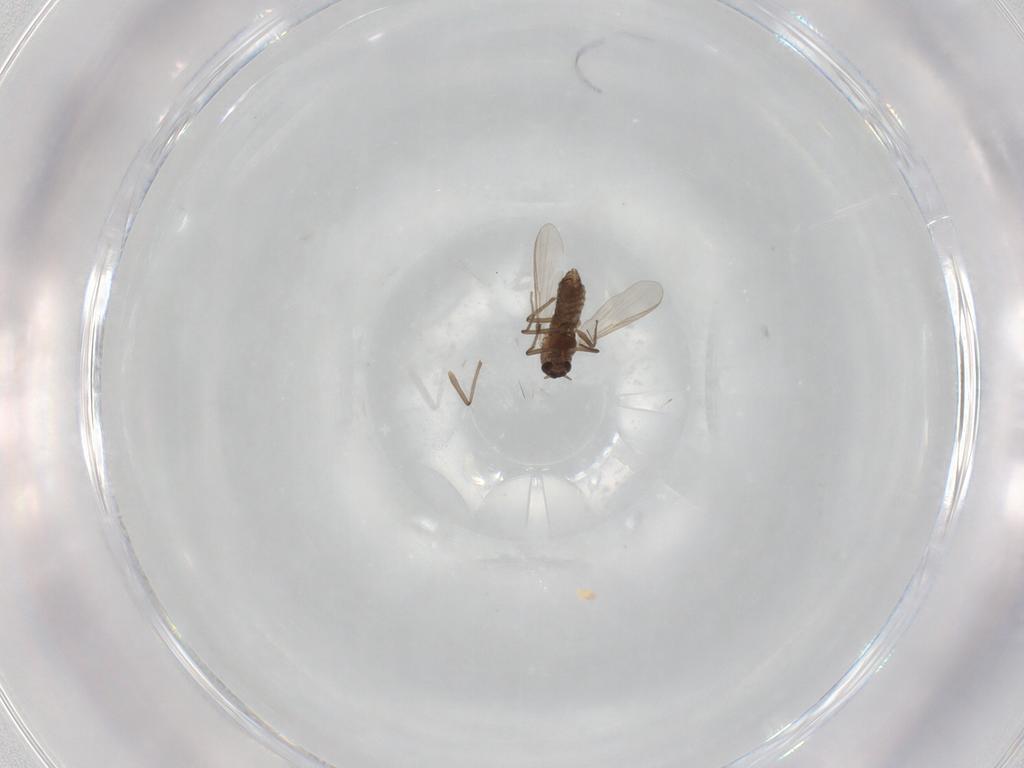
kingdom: Animalia
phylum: Arthropoda
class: Insecta
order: Diptera
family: Chironomidae
